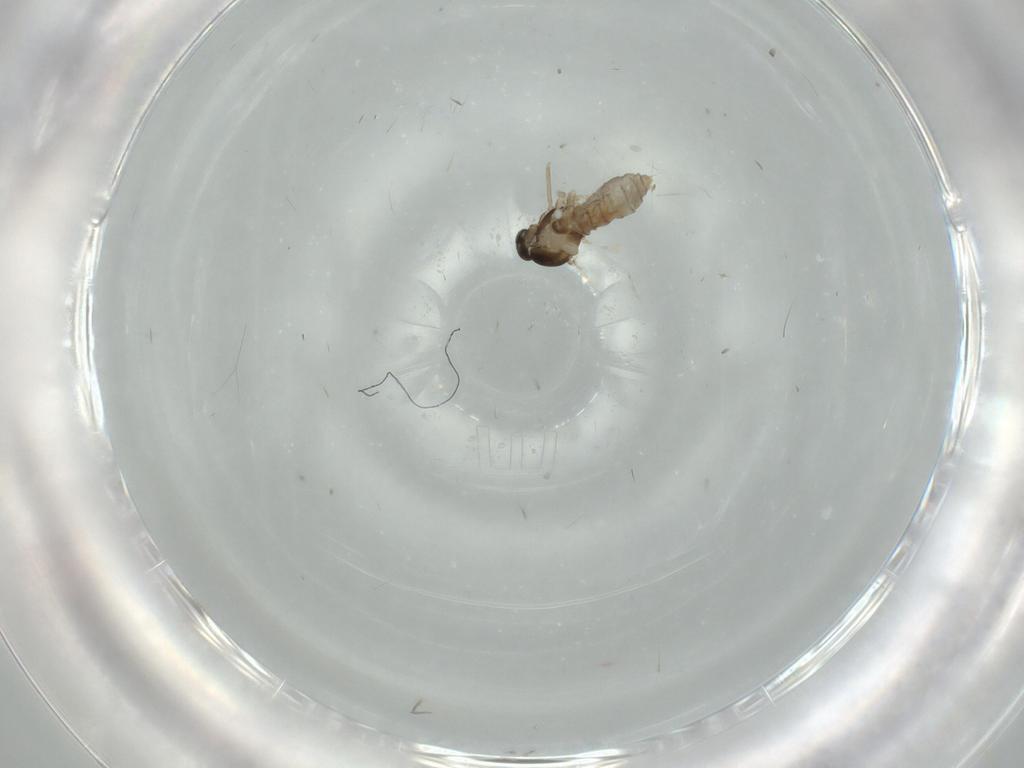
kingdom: Animalia
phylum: Arthropoda
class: Insecta
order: Diptera
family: Cecidomyiidae
